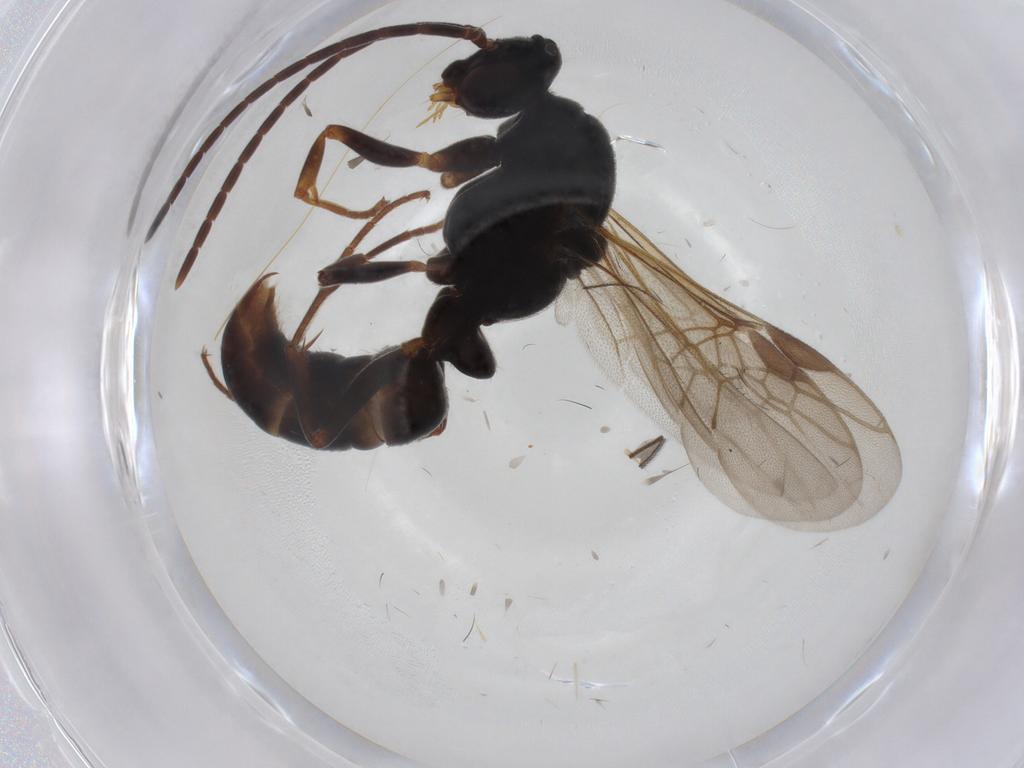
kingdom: Animalia
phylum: Arthropoda
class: Insecta
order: Hymenoptera
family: Formicidae
